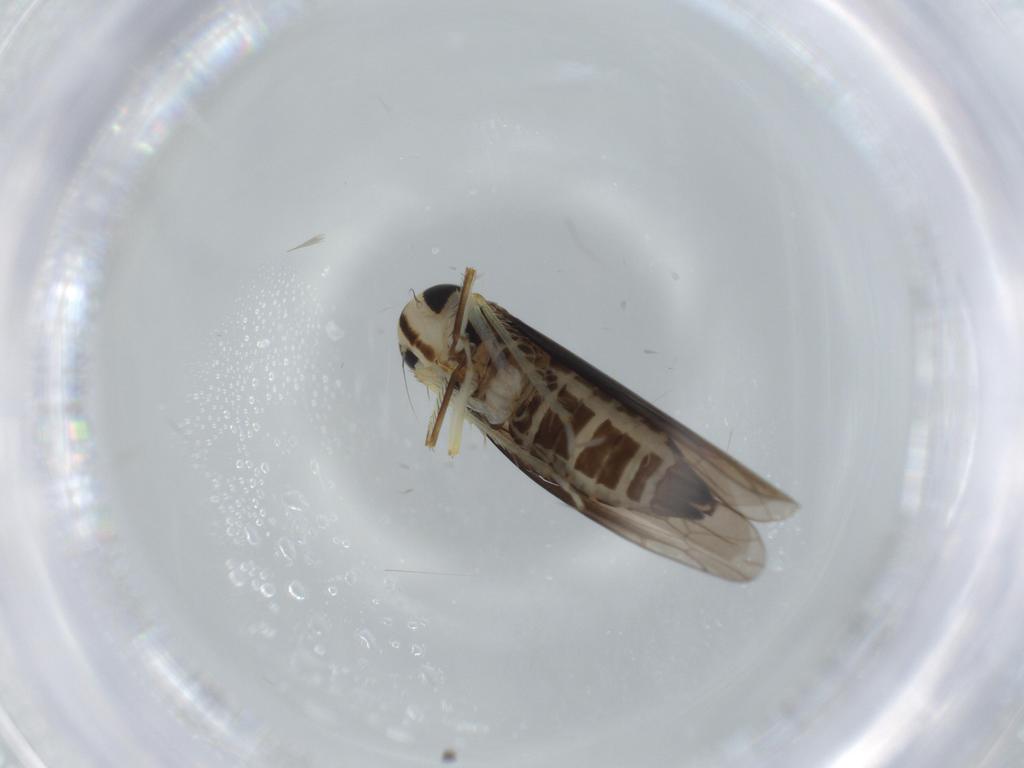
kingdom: Animalia
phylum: Arthropoda
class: Insecta
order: Hemiptera
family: Cicadellidae
